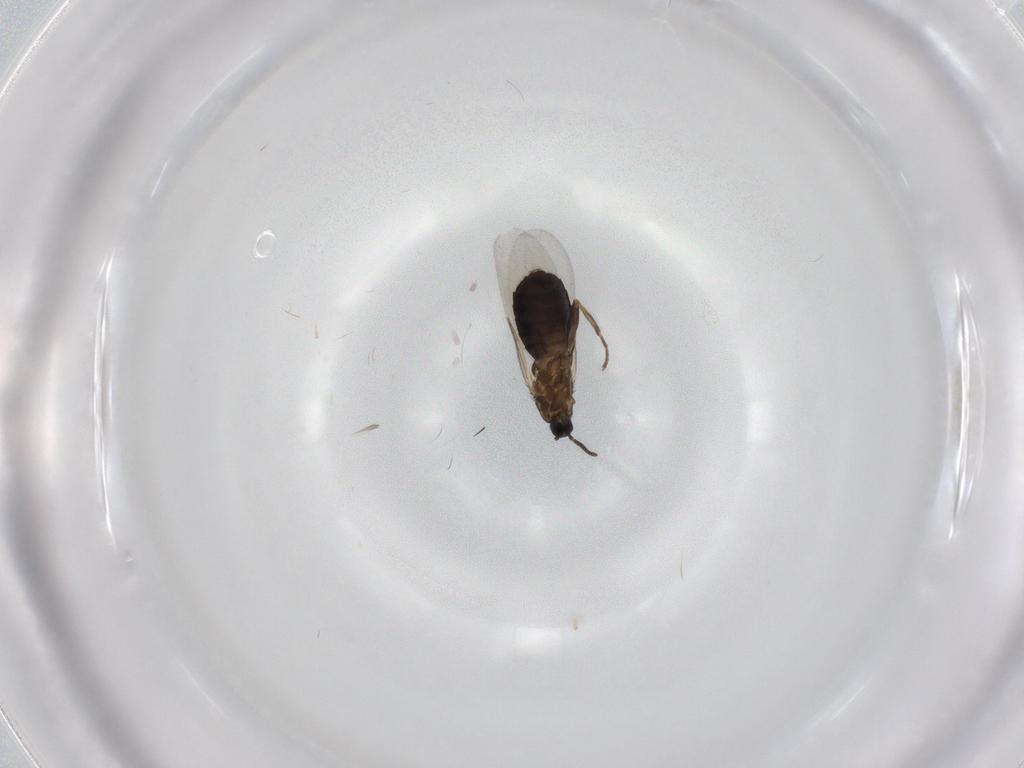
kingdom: Animalia
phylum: Arthropoda
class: Insecta
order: Diptera
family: Scatopsidae
